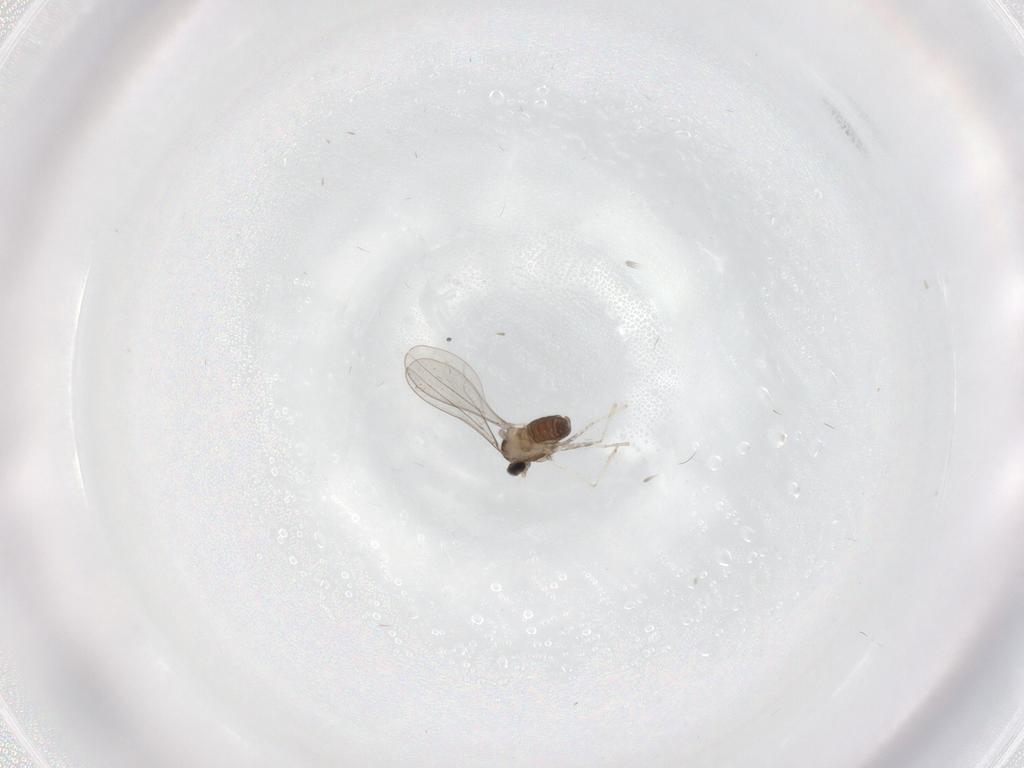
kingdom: Animalia
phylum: Arthropoda
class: Insecta
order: Diptera
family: Cecidomyiidae
